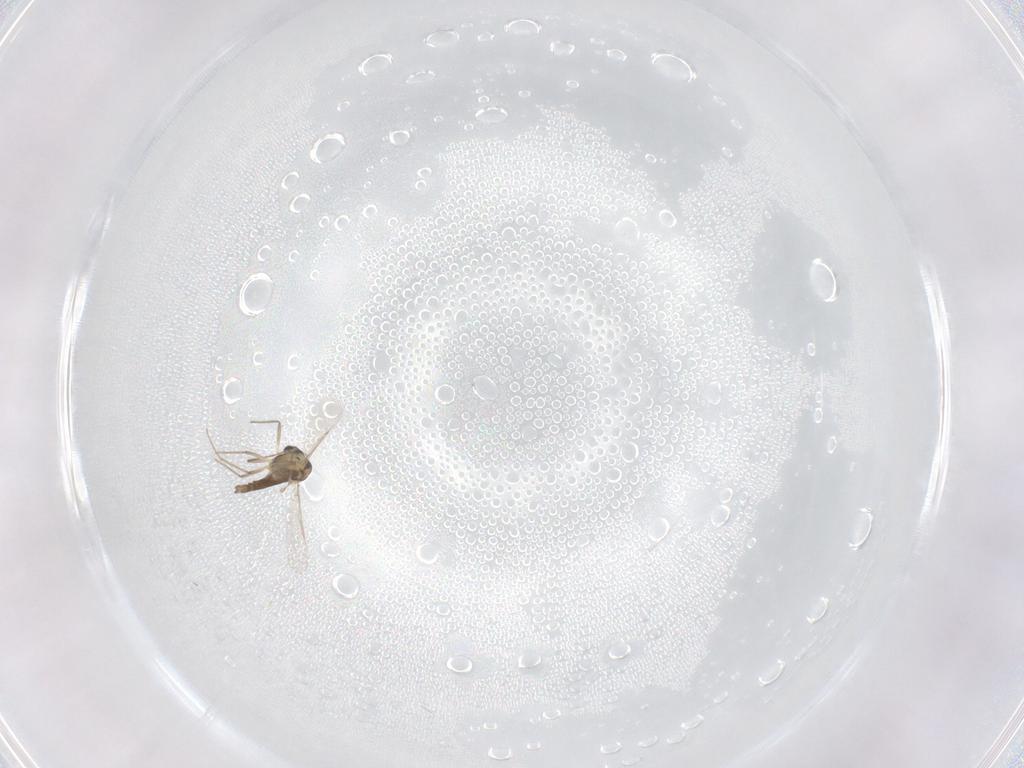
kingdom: Animalia
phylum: Arthropoda
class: Insecta
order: Diptera
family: Chironomidae
